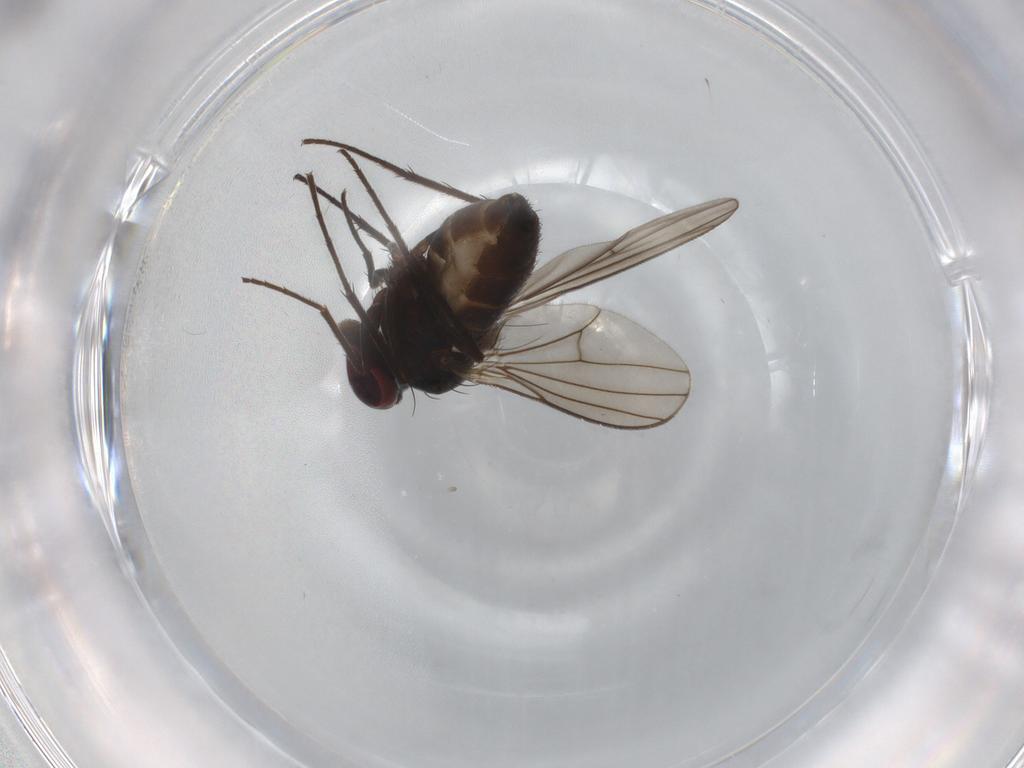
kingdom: Animalia
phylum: Arthropoda
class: Insecta
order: Diptera
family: Dolichopodidae
